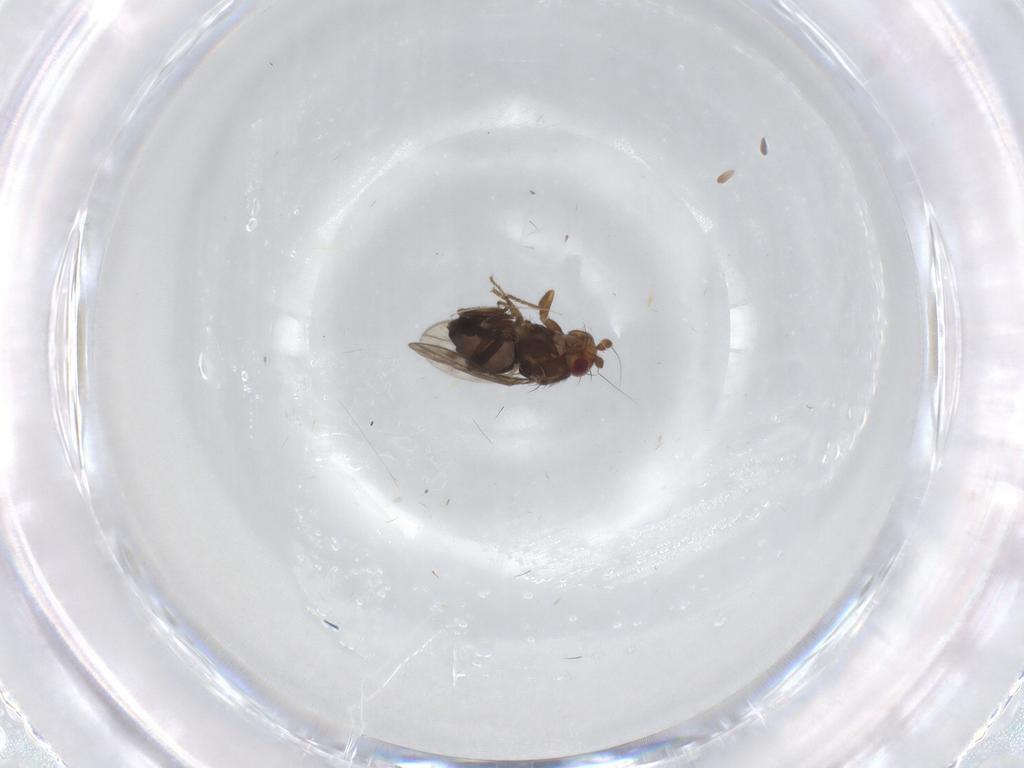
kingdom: Animalia
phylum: Arthropoda
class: Insecta
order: Diptera
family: Sphaeroceridae
